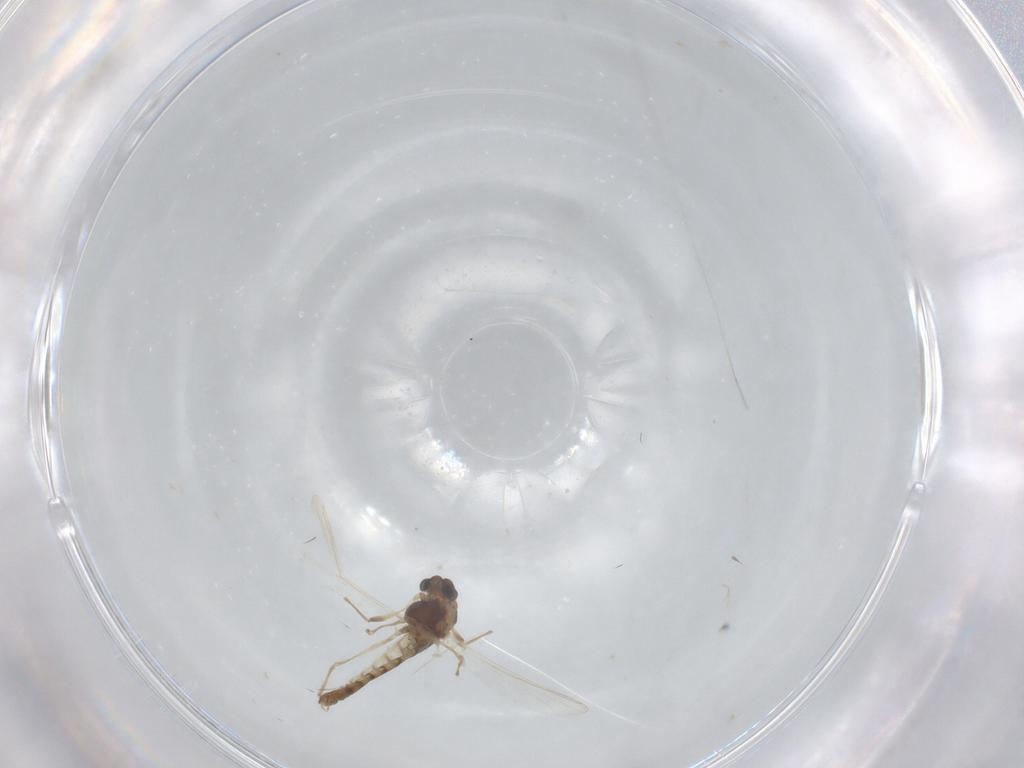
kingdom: Animalia
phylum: Arthropoda
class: Insecta
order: Diptera
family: Chironomidae
